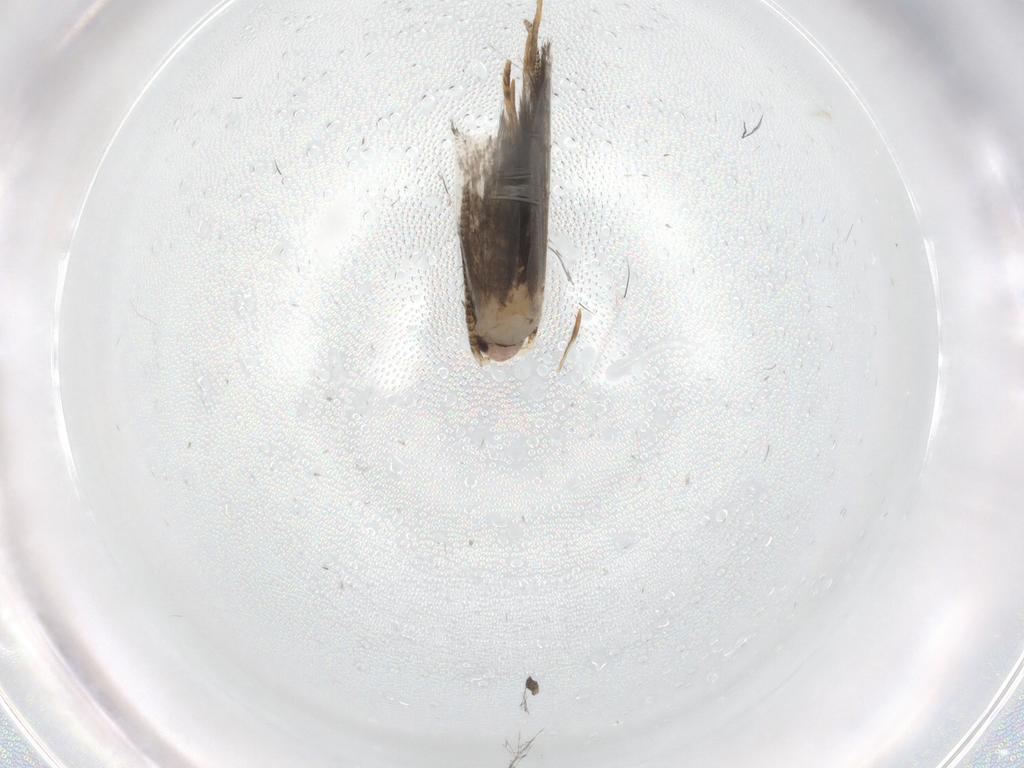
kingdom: Animalia
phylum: Arthropoda
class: Insecta
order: Lepidoptera
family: Tineidae
